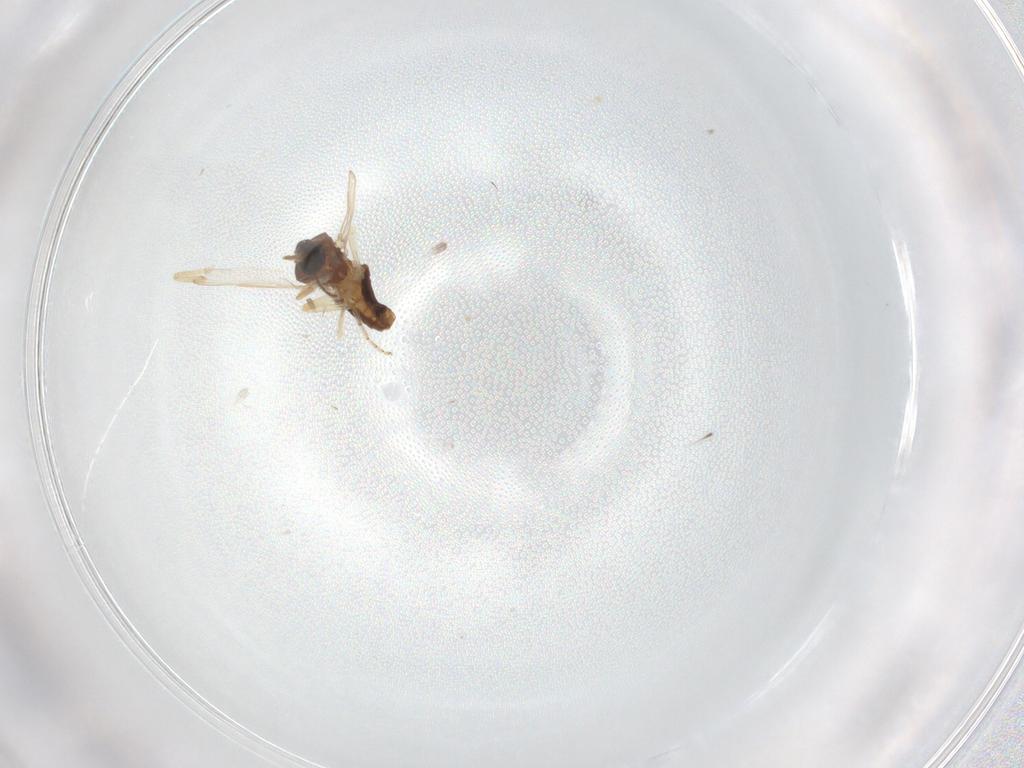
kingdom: Animalia
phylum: Arthropoda
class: Insecta
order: Diptera
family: Ceratopogonidae
